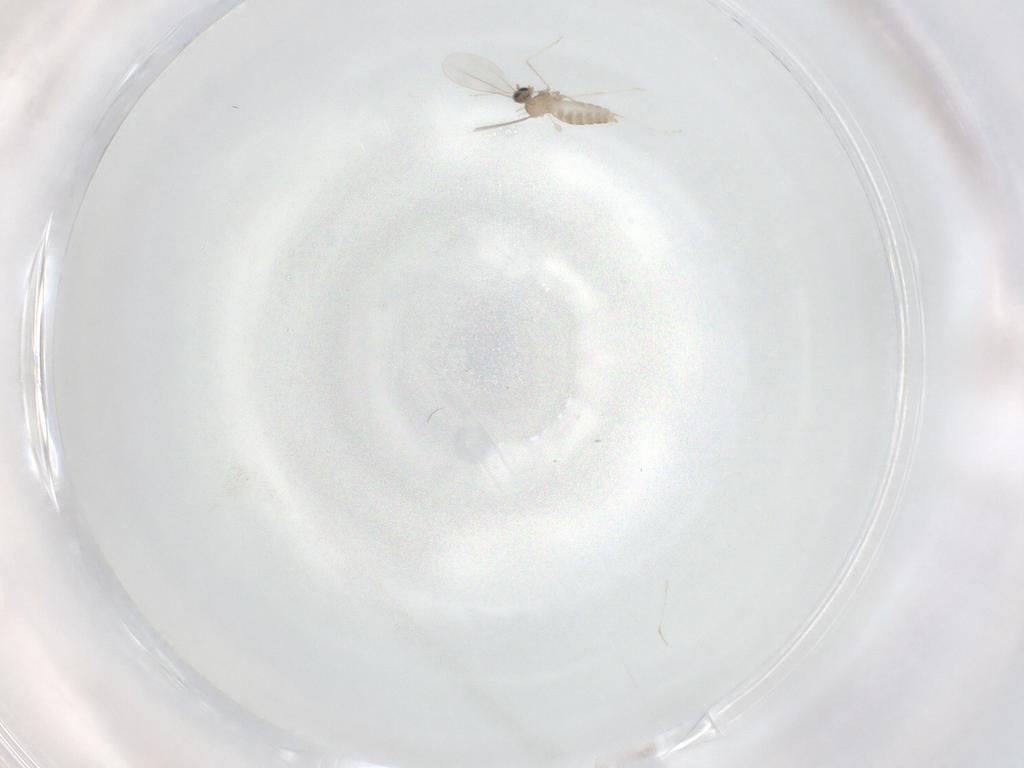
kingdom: Animalia
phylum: Arthropoda
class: Insecta
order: Diptera
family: Cecidomyiidae
